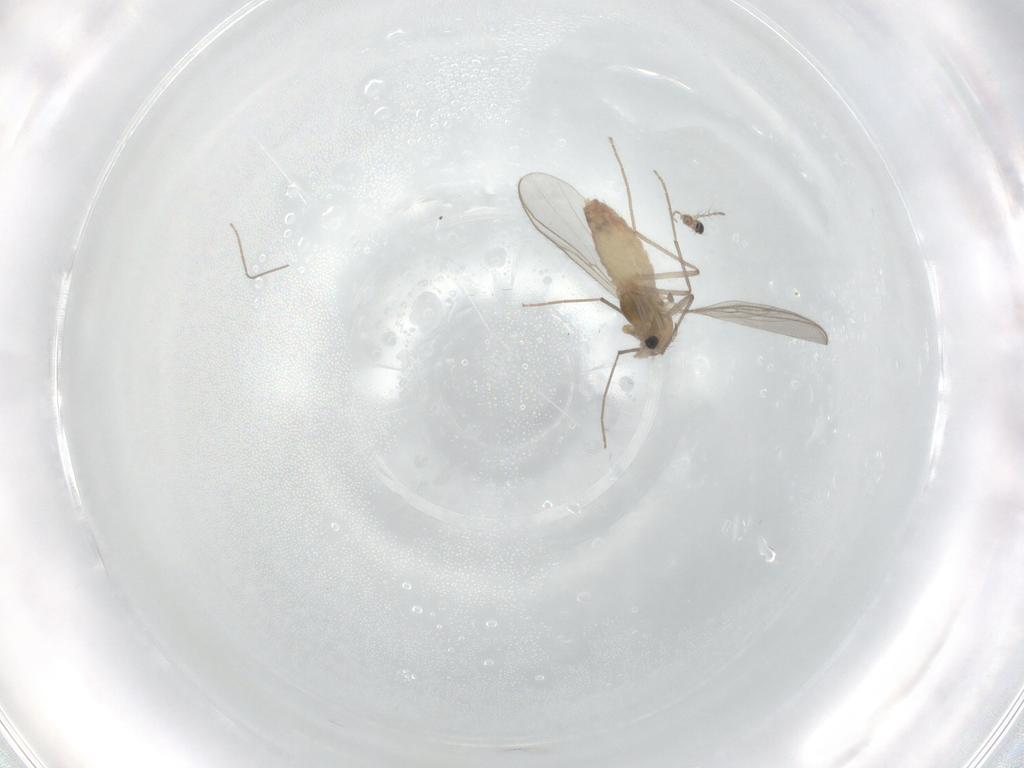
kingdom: Animalia
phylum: Arthropoda
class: Insecta
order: Diptera
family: Chironomidae
